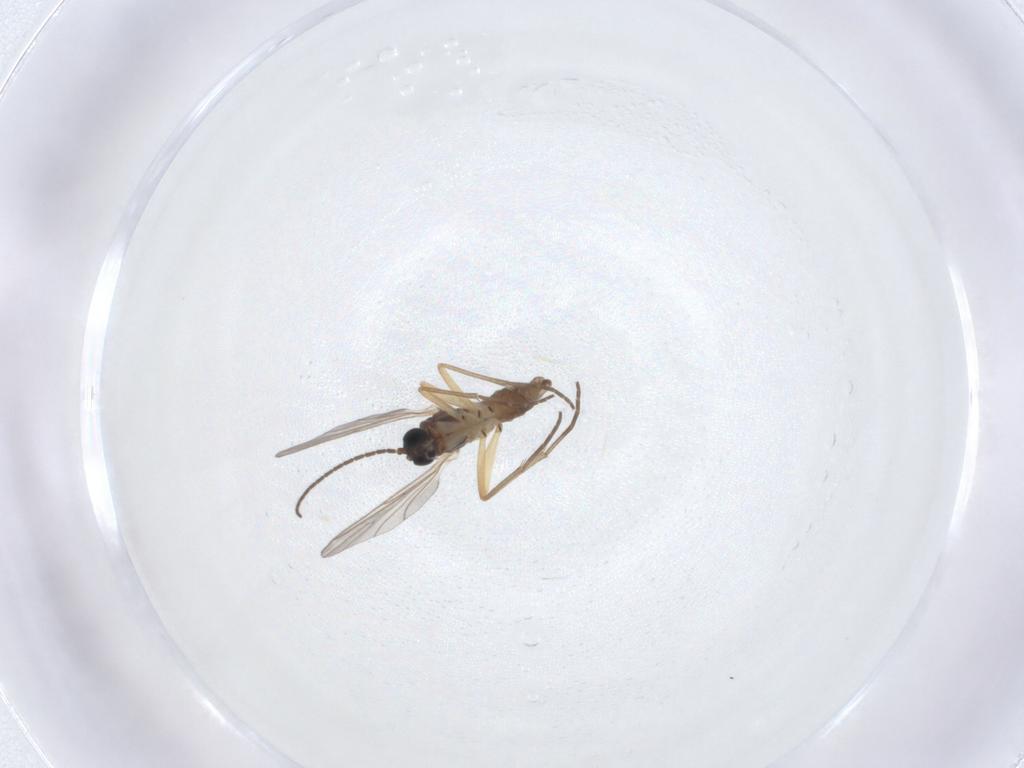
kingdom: Animalia
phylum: Arthropoda
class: Insecta
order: Diptera
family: Sciaridae
